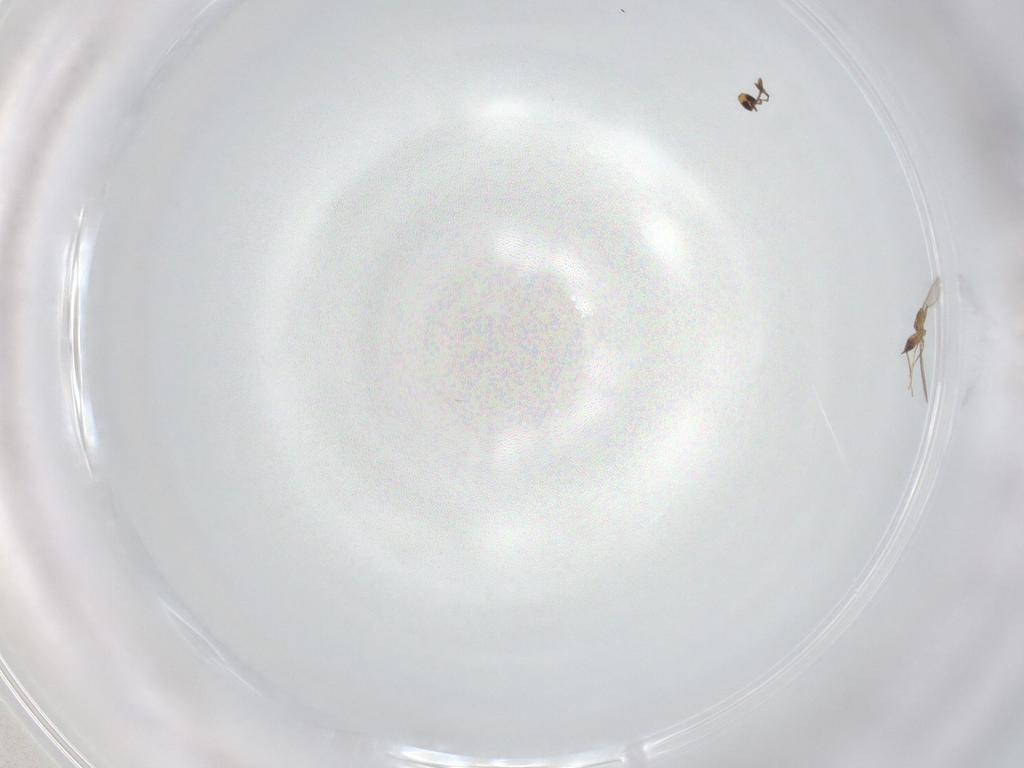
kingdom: Animalia
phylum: Arthropoda
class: Insecta
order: Hymenoptera
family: Mymaridae
